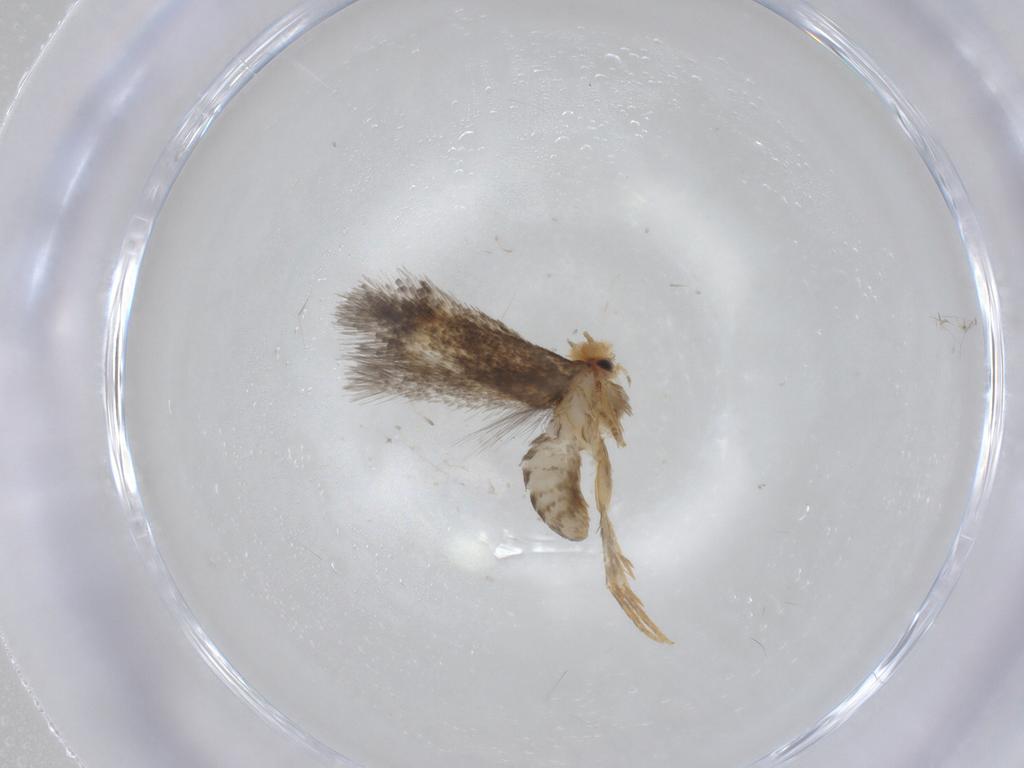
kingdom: Animalia
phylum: Arthropoda
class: Insecta
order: Lepidoptera
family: Nepticulidae
